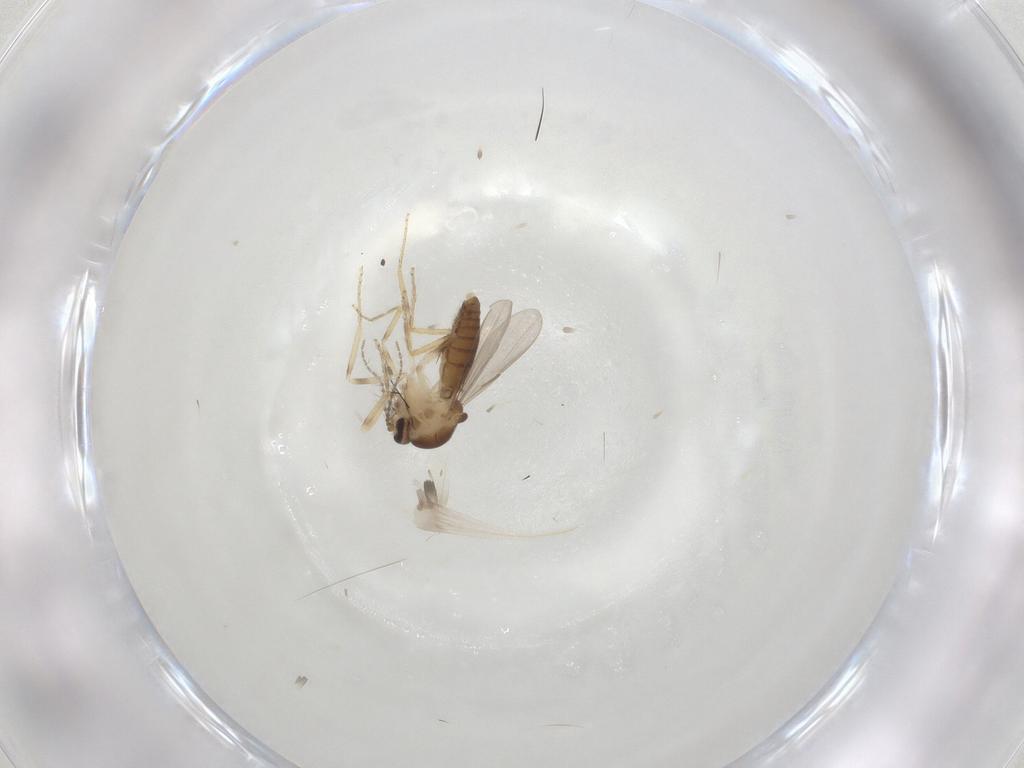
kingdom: Animalia
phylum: Arthropoda
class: Insecta
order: Diptera
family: Ceratopogonidae
